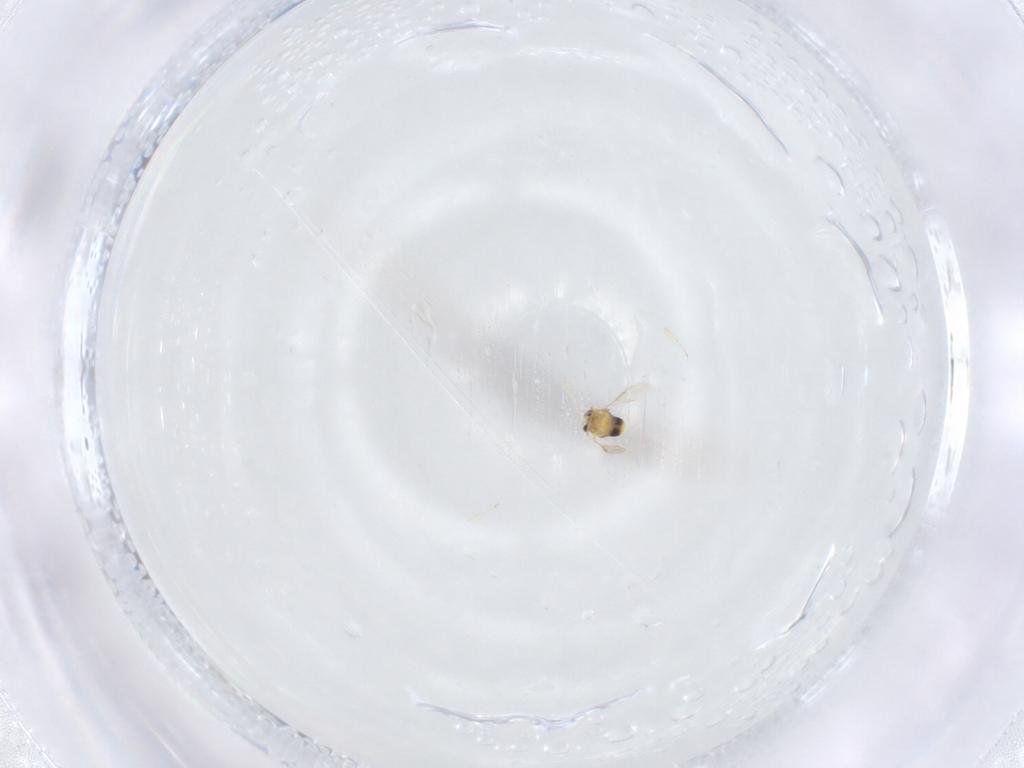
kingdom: Animalia
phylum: Arthropoda
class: Insecta
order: Hymenoptera
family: Aphelinidae
